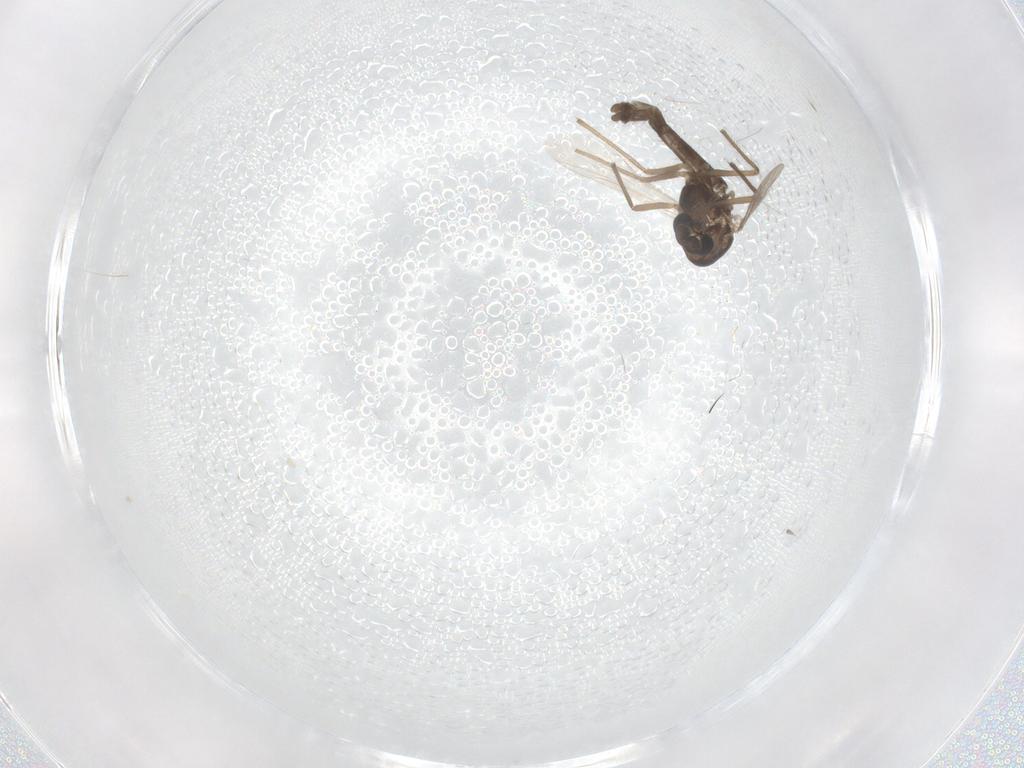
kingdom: Animalia
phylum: Arthropoda
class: Insecta
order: Diptera
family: Chironomidae
